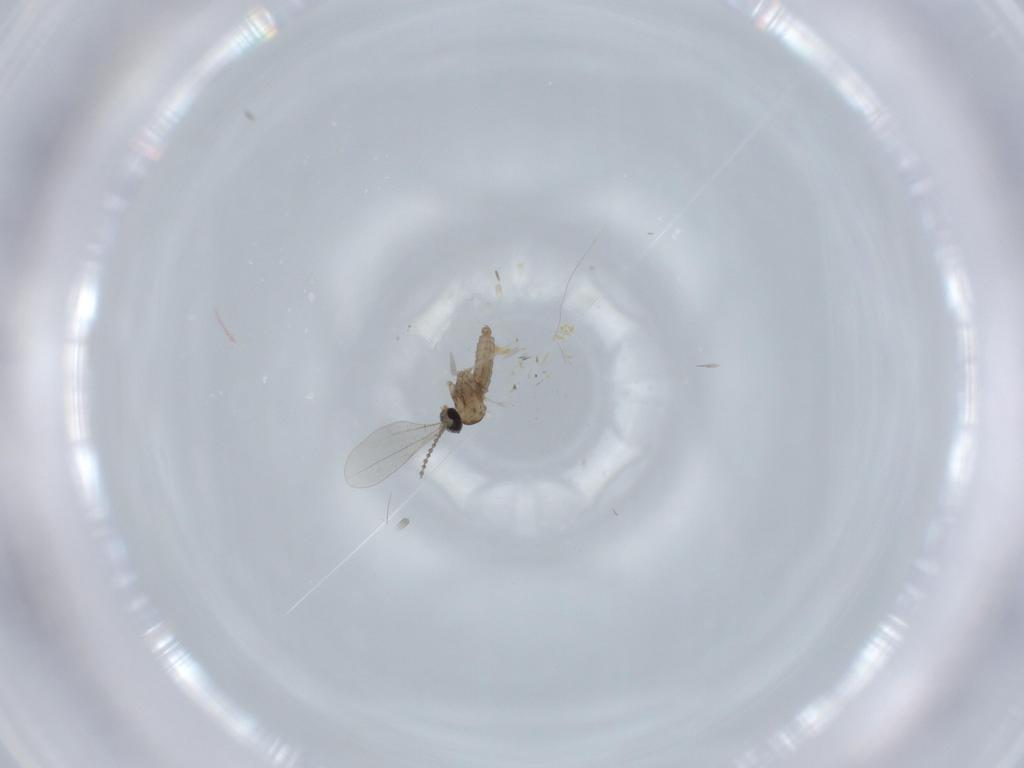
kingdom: Animalia
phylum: Arthropoda
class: Insecta
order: Diptera
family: Cecidomyiidae
